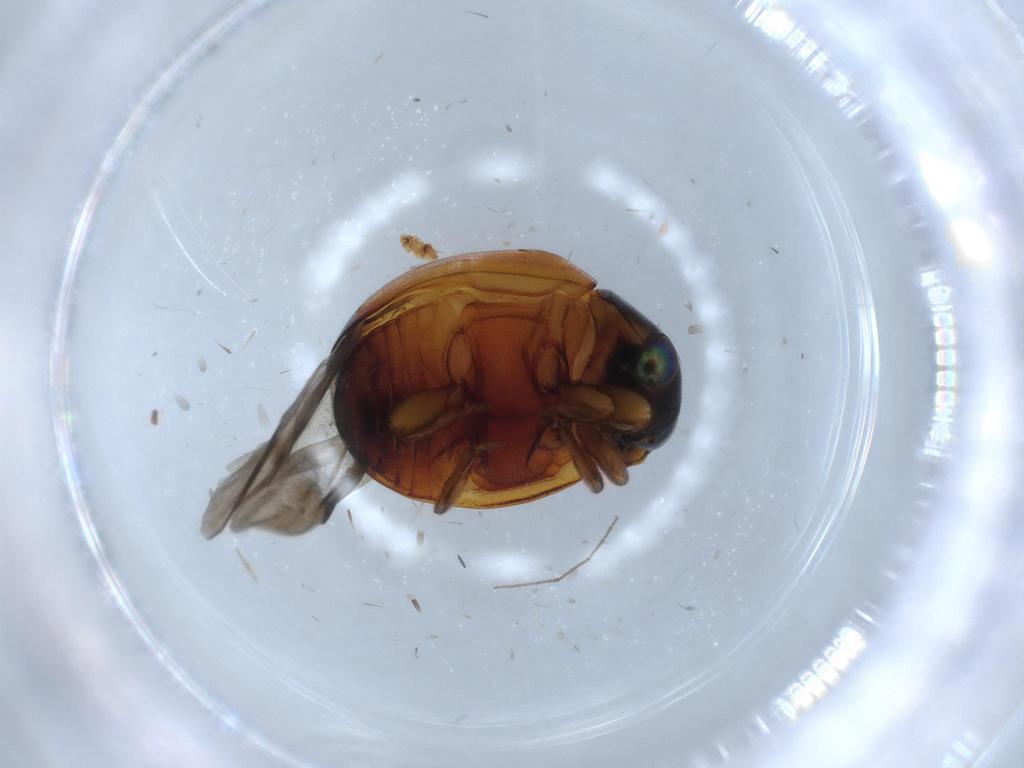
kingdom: Animalia
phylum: Arthropoda
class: Insecta
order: Coleoptera
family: Coccinellidae
